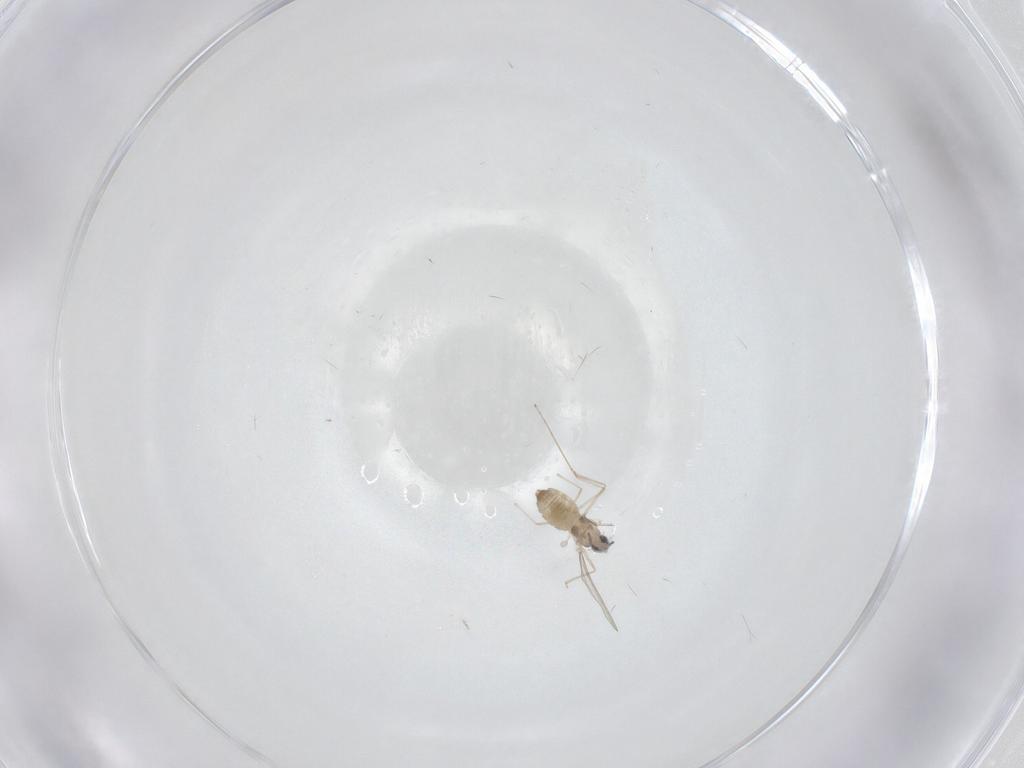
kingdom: Animalia
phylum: Arthropoda
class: Insecta
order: Diptera
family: Cecidomyiidae
